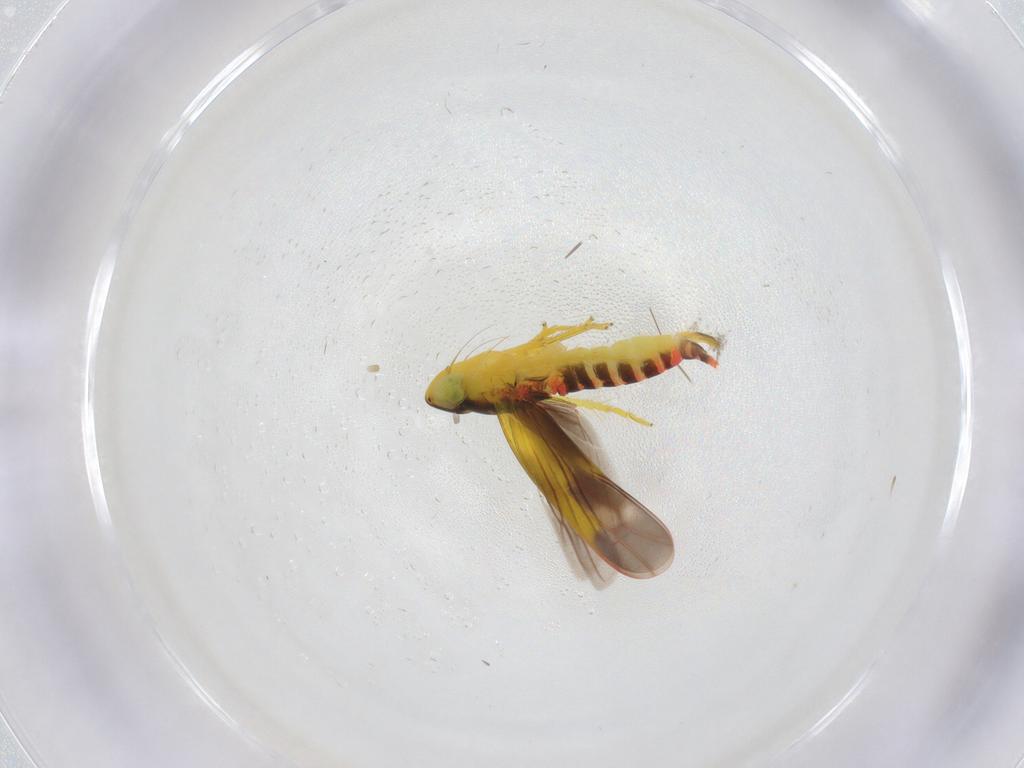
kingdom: Animalia
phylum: Arthropoda
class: Insecta
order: Hemiptera
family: Cicadellidae
